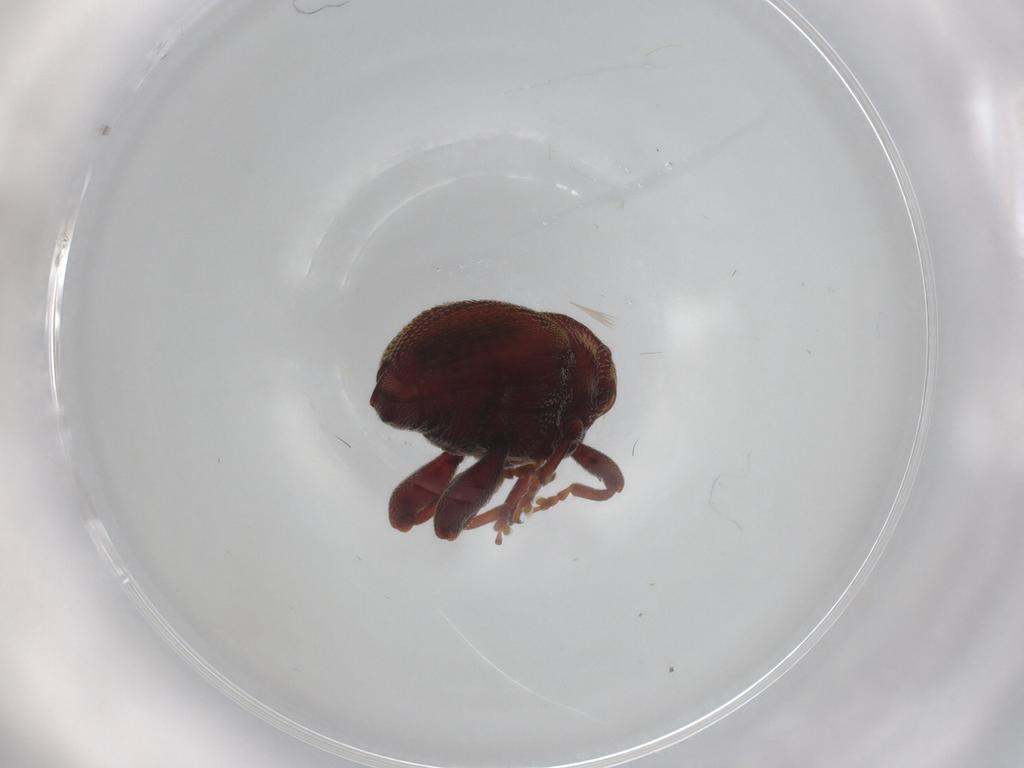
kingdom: Animalia
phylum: Arthropoda
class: Insecta
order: Coleoptera
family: Curculionidae
